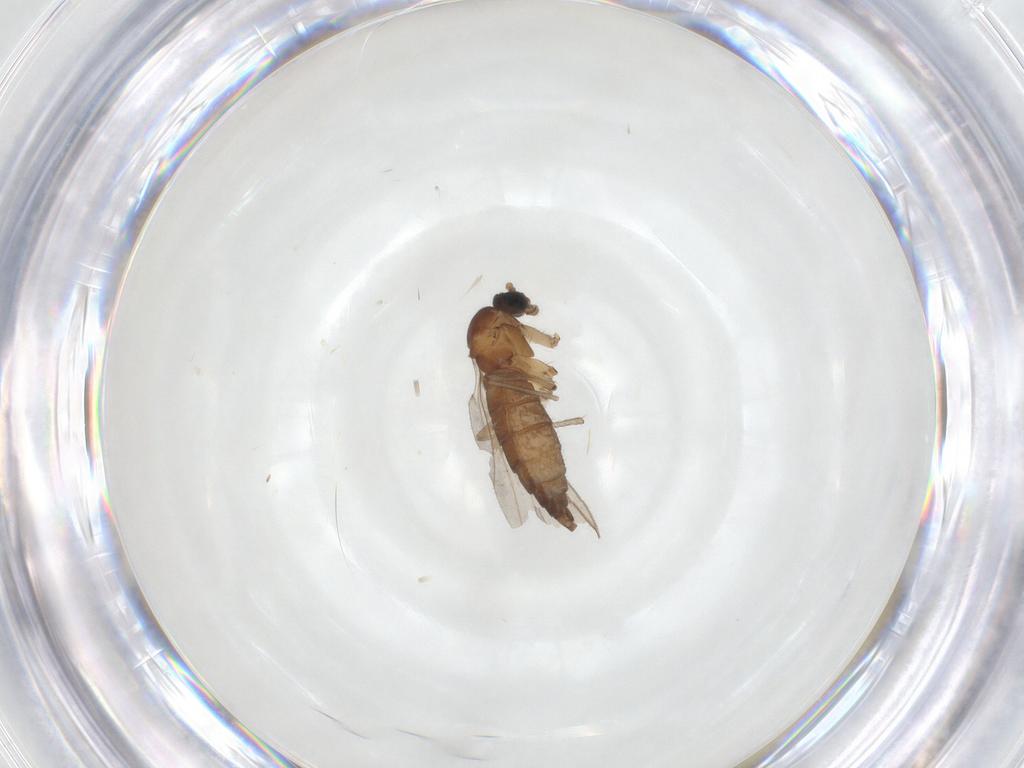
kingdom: Animalia
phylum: Arthropoda
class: Insecta
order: Diptera
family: Sciaridae
